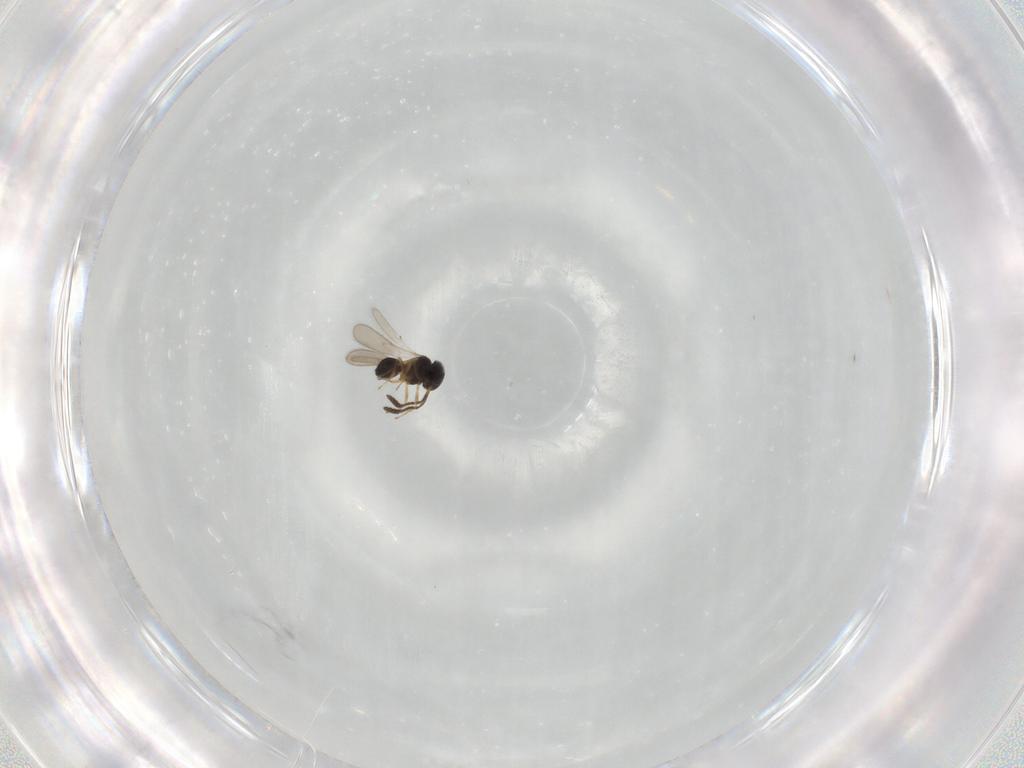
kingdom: Animalia
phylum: Arthropoda
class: Insecta
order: Hymenoptera
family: Scelionidae
